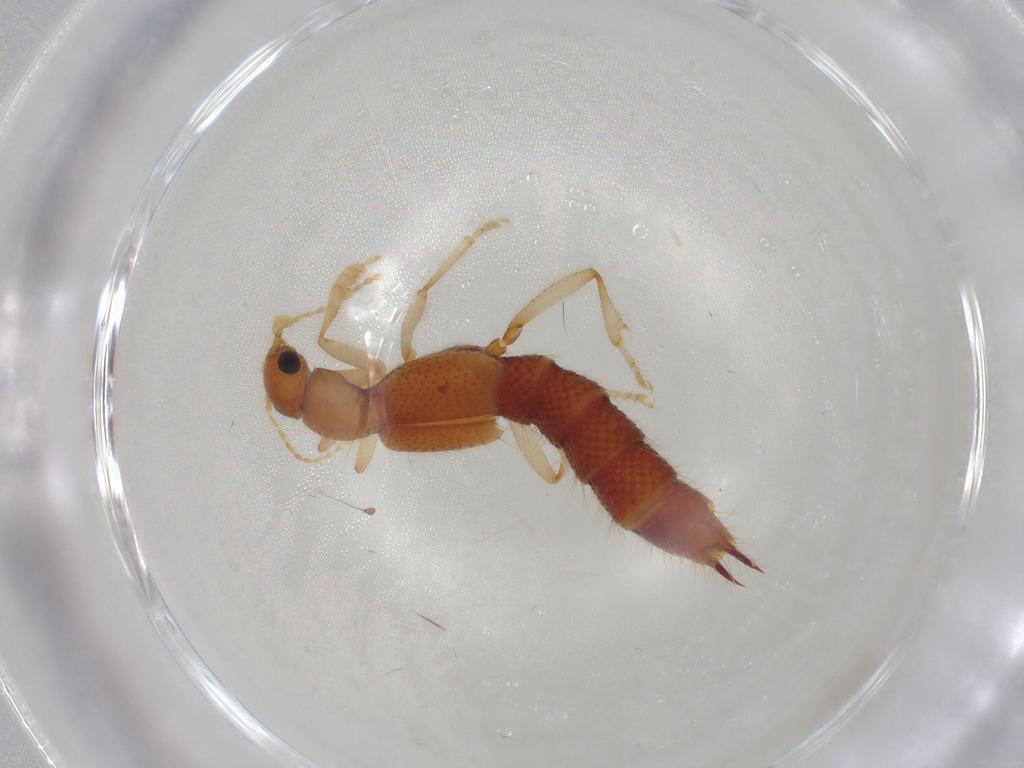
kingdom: Animalia
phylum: Arthropoda
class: Insecta
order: Coleoptera
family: Staphylinidae
